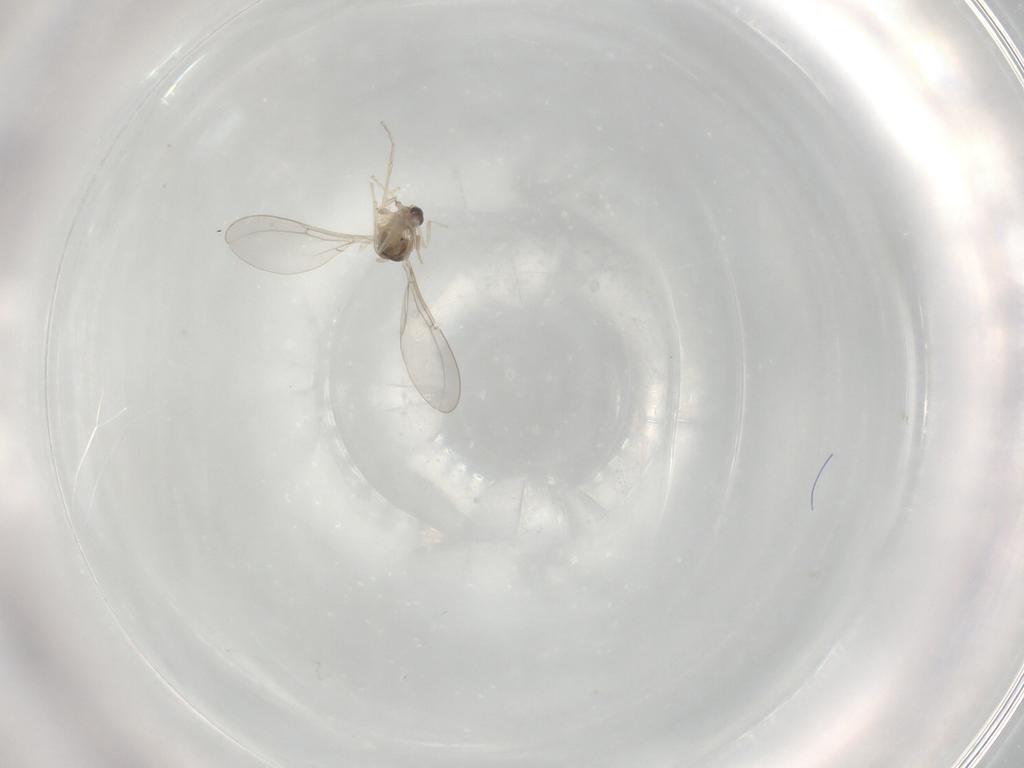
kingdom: Animalia
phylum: Arthropoda
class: Insecta
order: Diptera
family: Cecidomyiidae
